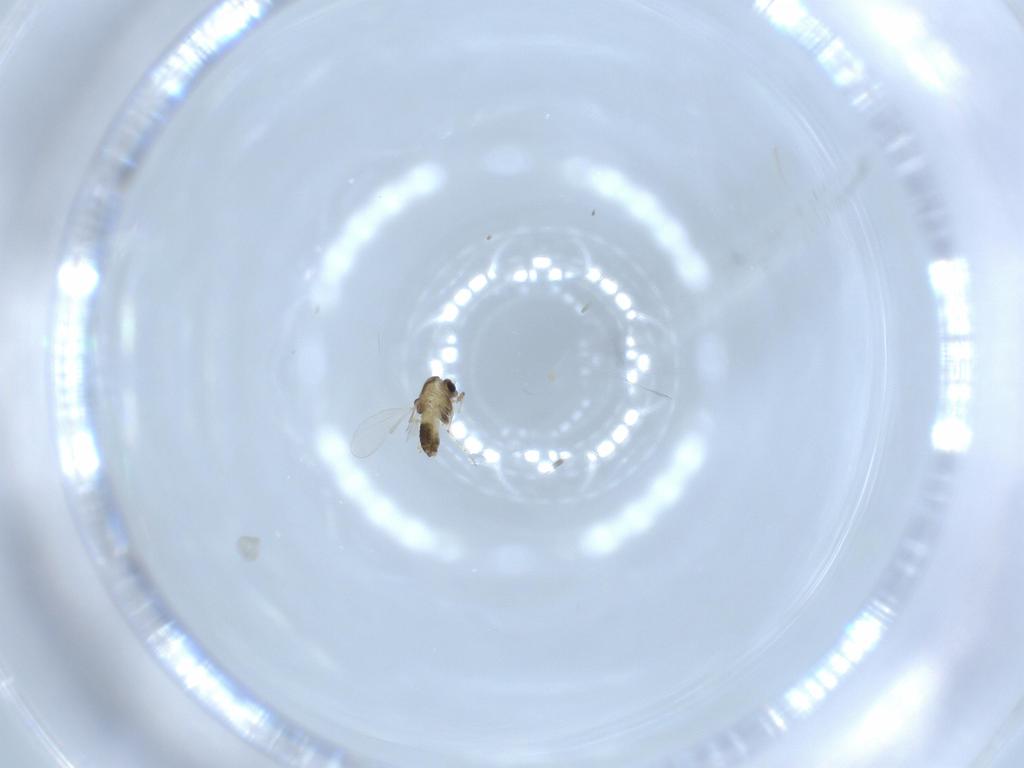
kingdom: Animalia
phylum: Arthropoda
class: Insecta
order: Diptera
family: Chironomidae
